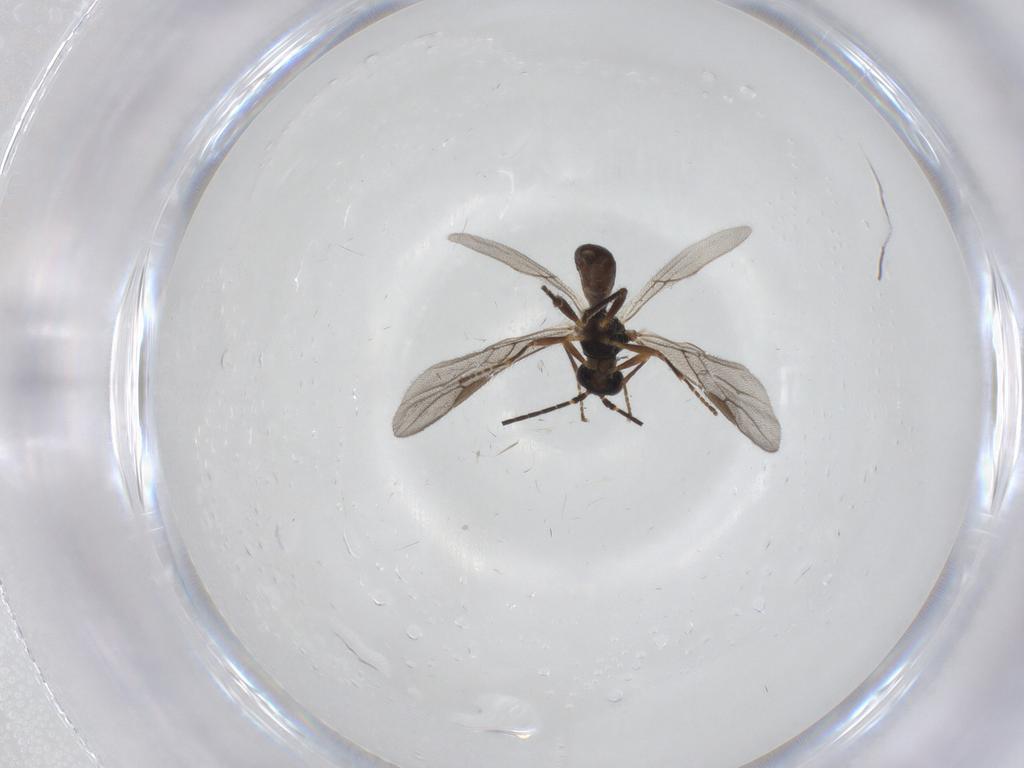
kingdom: Animalia
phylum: Arthropoda
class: Insecta
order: Hymenoptera
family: Braconidae
